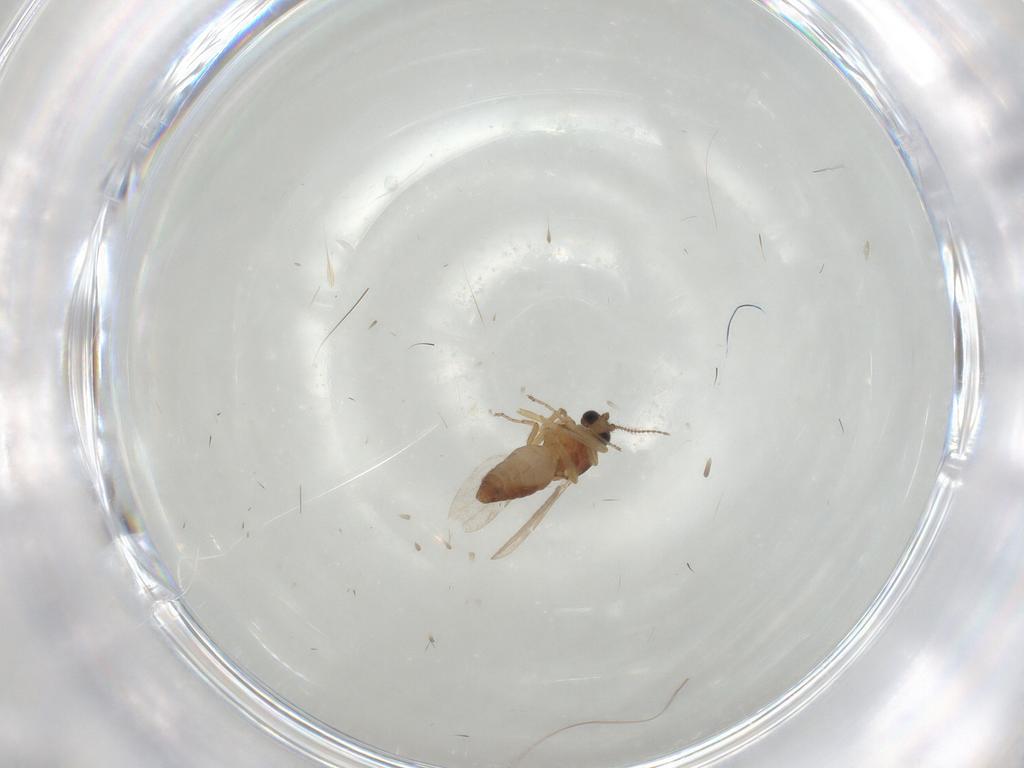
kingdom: Animalia
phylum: Arthropoda
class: Insecta
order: Diptera
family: Ceratopogonidae
